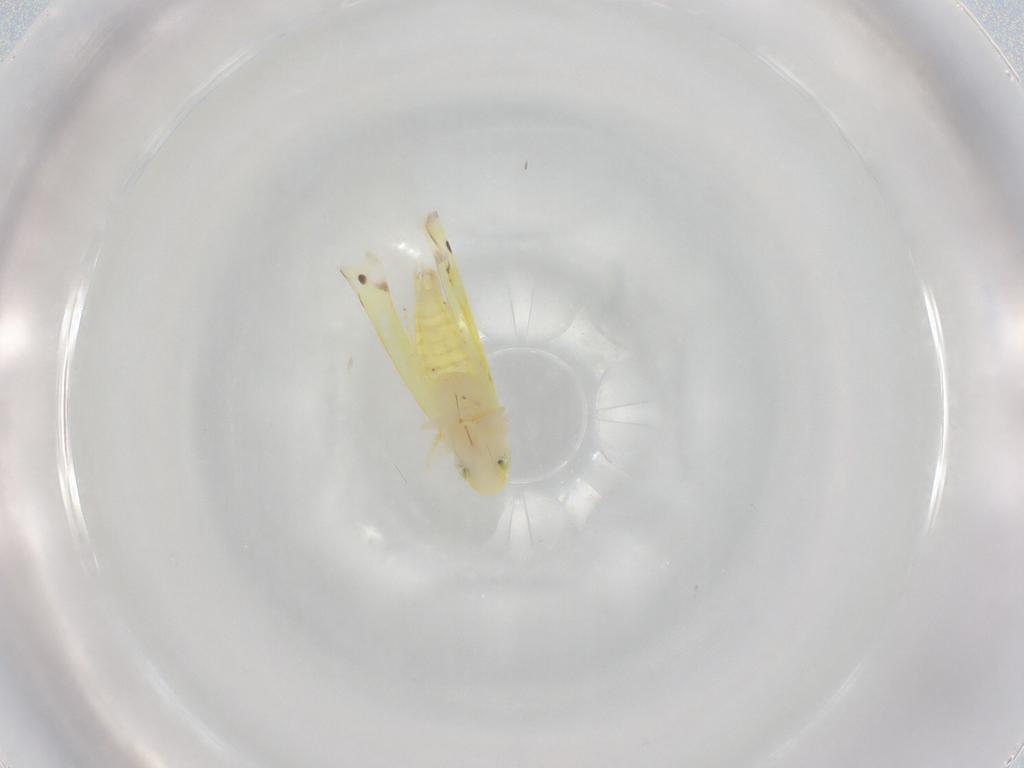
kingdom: Animalia
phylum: Arthropoda
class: Insecta
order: Hemiptera
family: Cicadellidae
